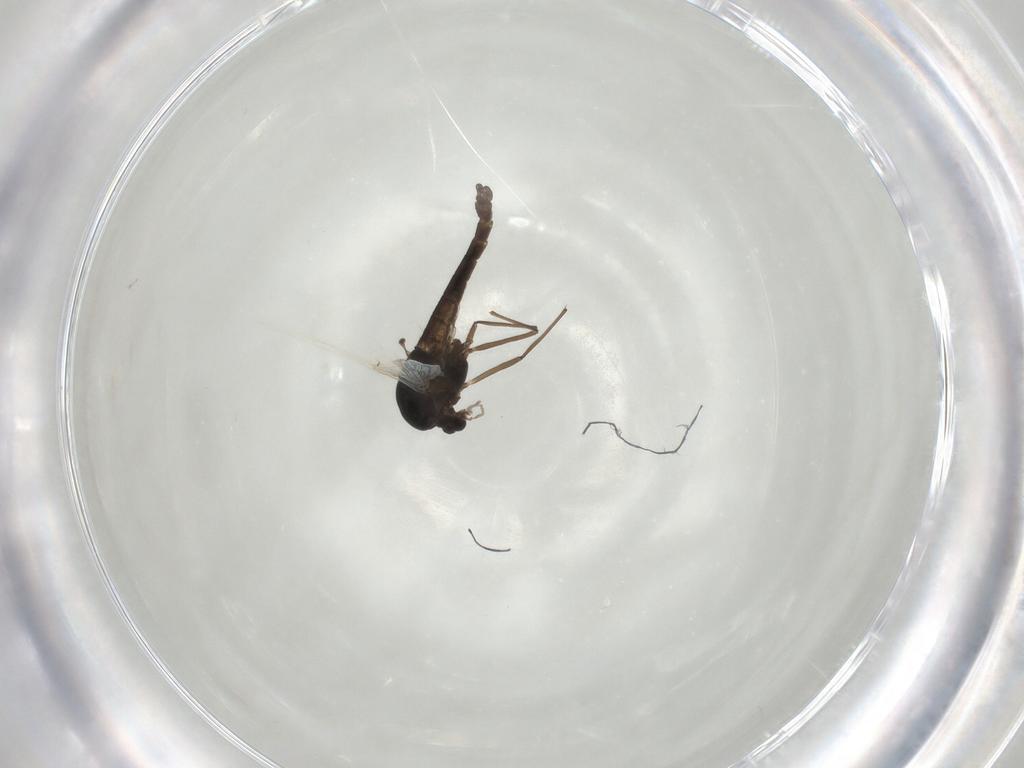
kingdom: Animalia
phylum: Arthropoda
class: Insecta
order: Diptera
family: Chironomidae
